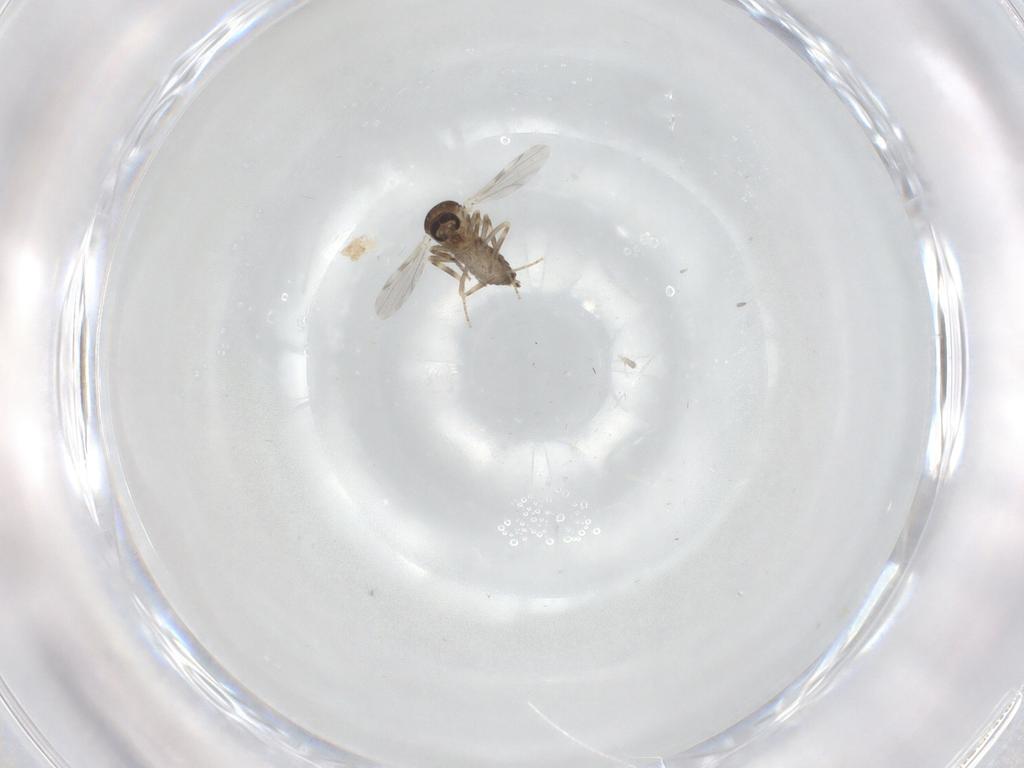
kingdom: Animalia
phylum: Arthropoda
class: Insecta
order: Diptera
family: Ceratopogonidae
